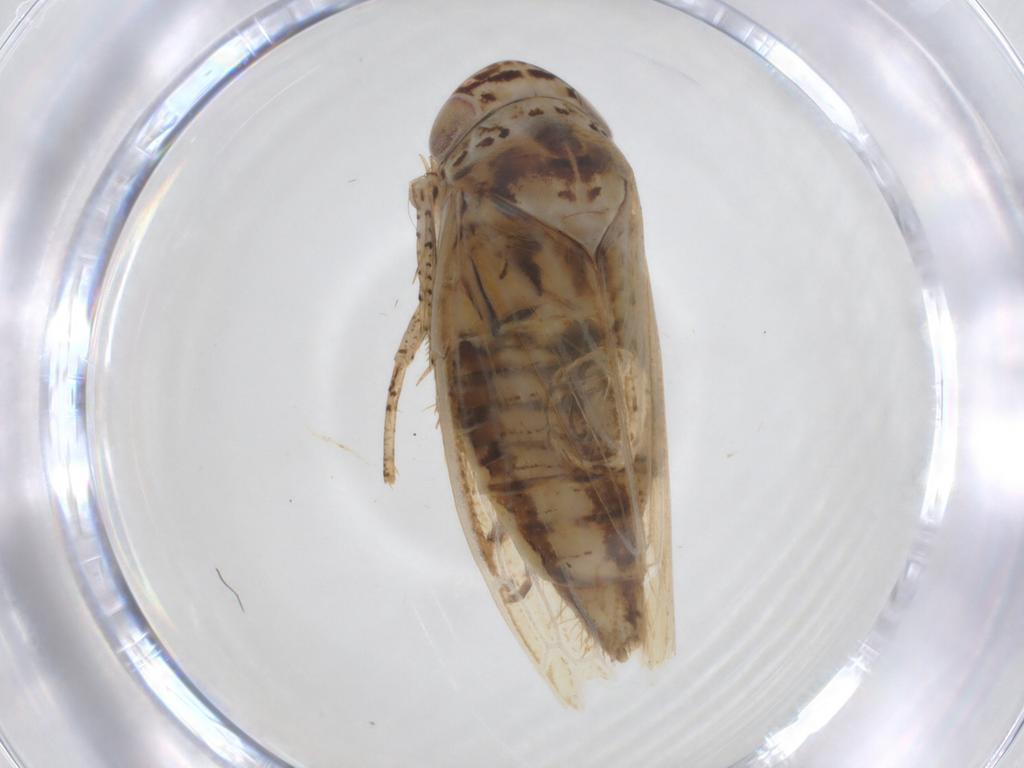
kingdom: Animalia
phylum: Arthropoda
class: Insecta
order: Hemiptera
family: Cicadellidae
